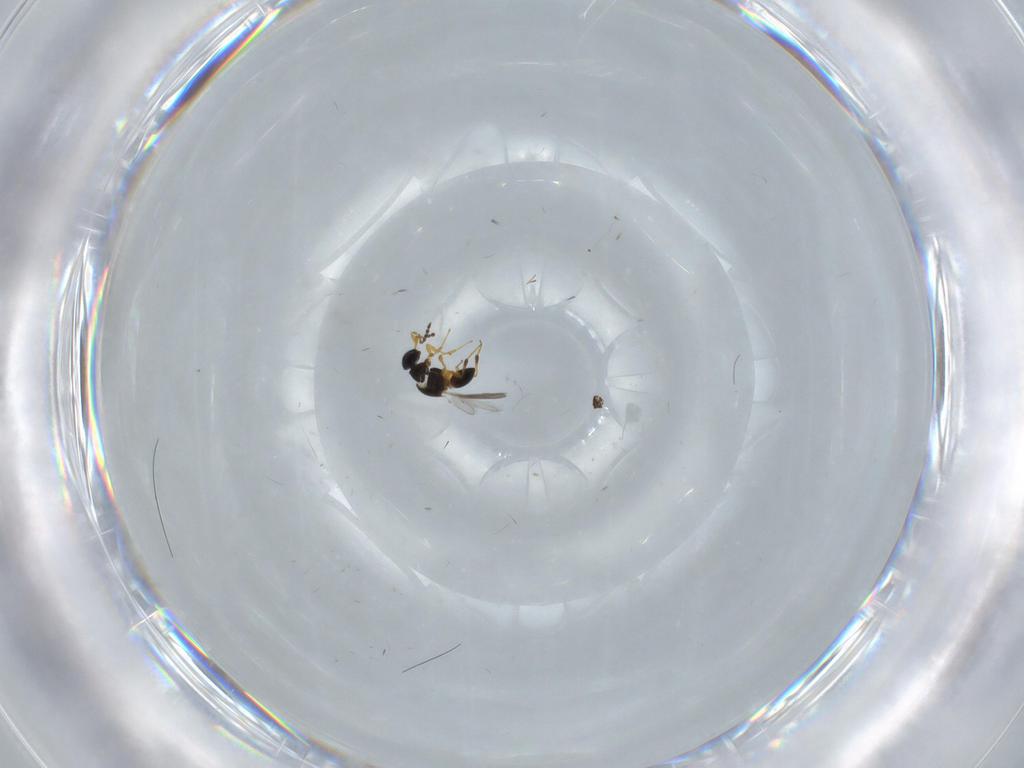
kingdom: Animalia
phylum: Arthropoda
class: Insecta
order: Hymenoptera
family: Platygastridae
